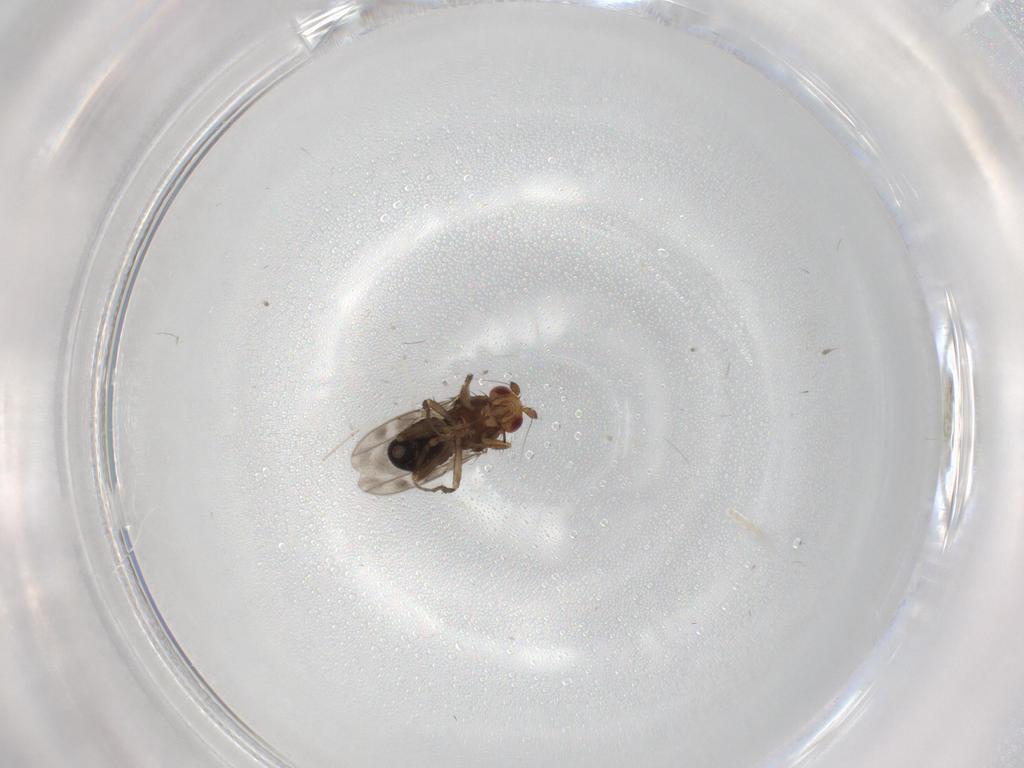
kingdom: Animalia
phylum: Arthropoda
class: Insecta
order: Diptera
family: Sphaeroceridae
